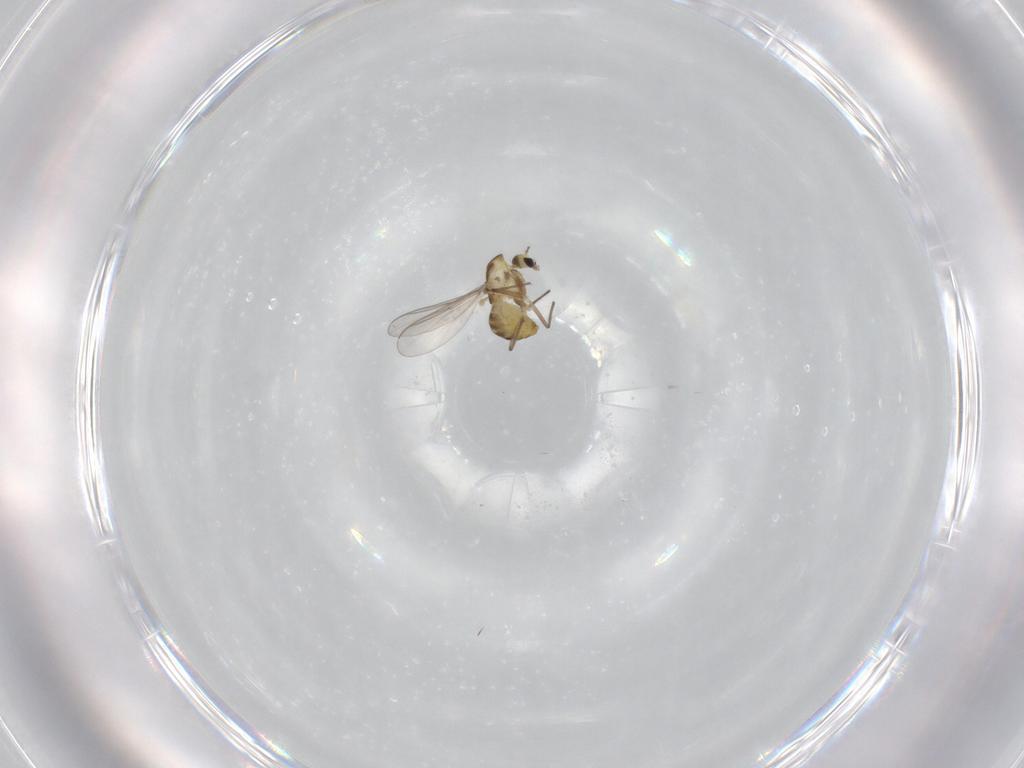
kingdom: Animalia
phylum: Arthropoda
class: Insecta
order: Diptera
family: Chironomidae
